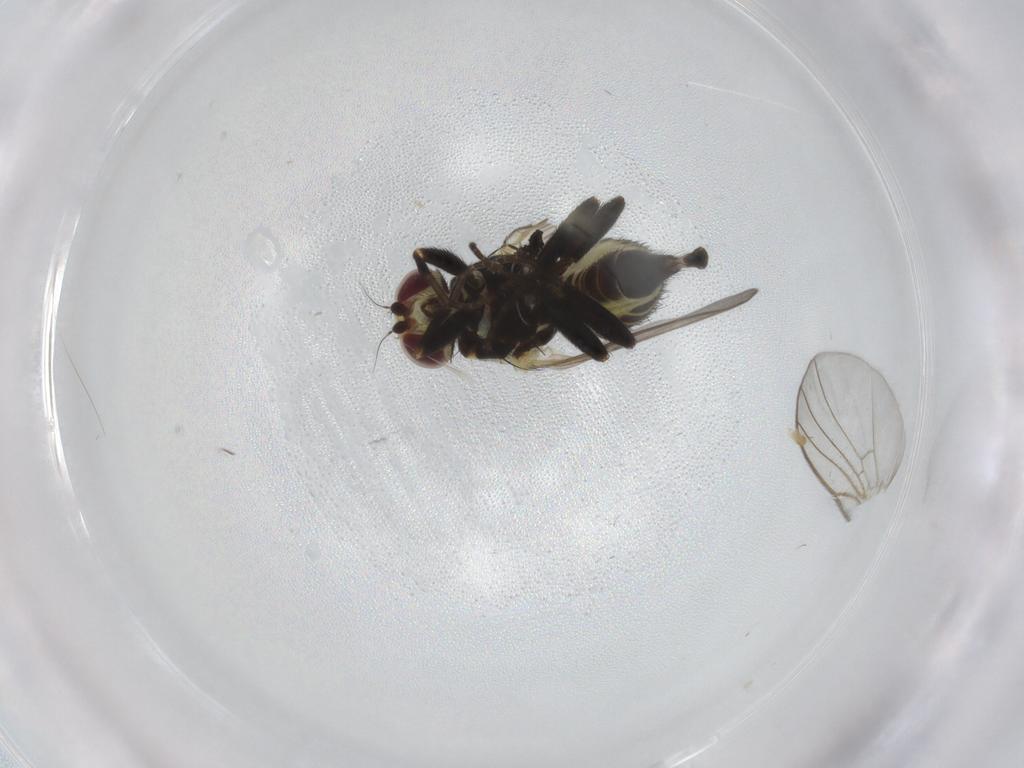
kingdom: Animalia
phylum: Arthropoda
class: Insecta
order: Diptera
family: Agromyzidae
